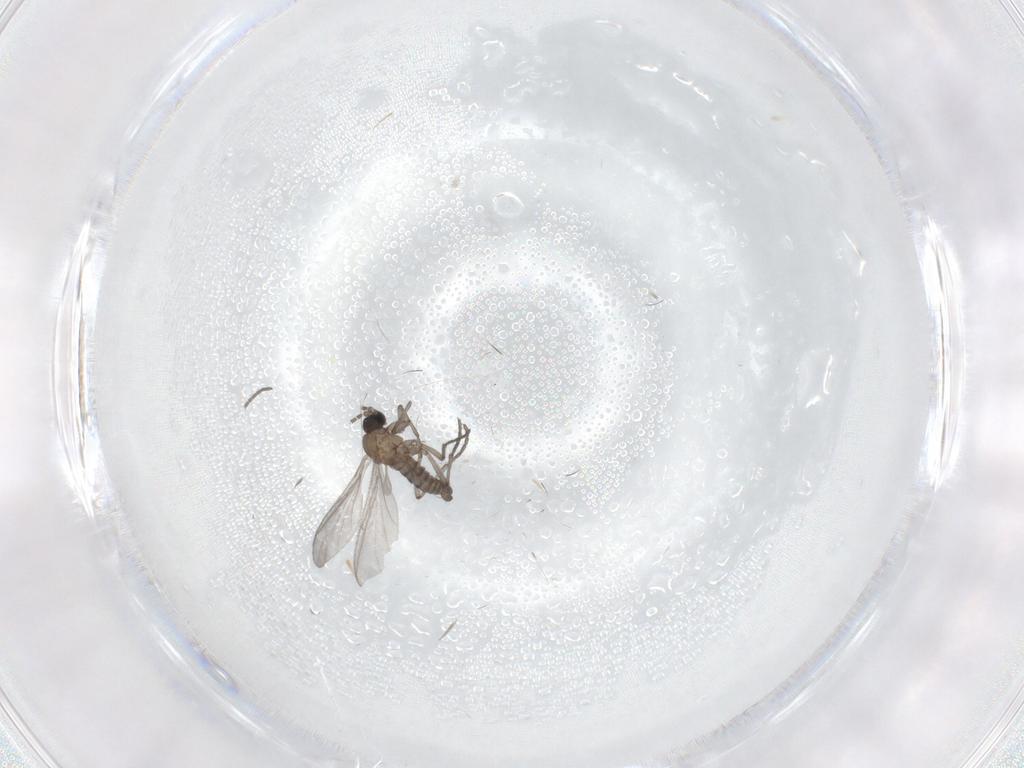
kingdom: Animalia
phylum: Arthropoda
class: Insecta
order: Diptera
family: Sciaridae
